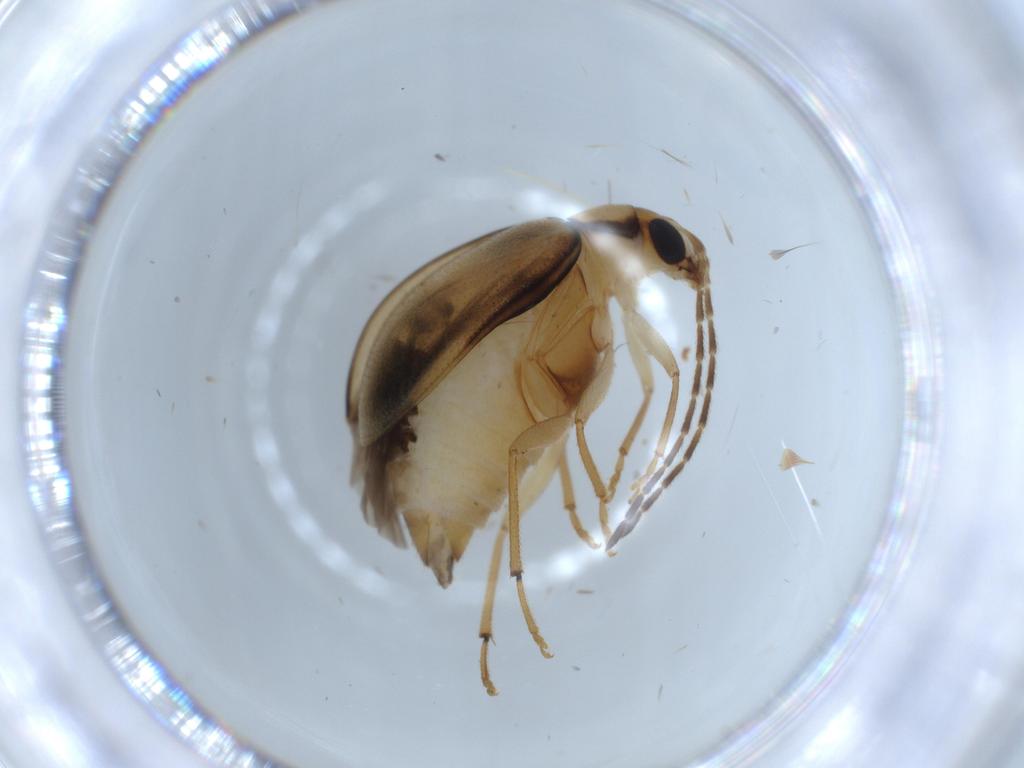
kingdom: Animalia
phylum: Arthropoda
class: Insecta
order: Coleoptera
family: Chrysomelidae
